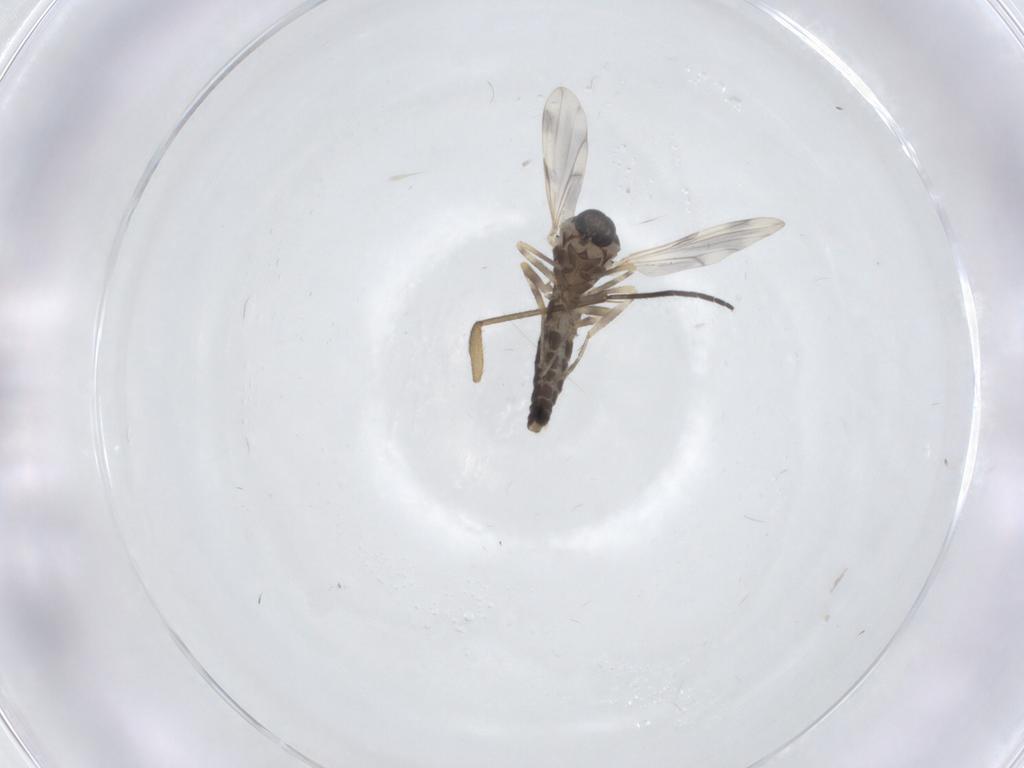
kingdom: Animalia
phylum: Arthropoda
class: Insecta
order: Diptera
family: Ceratopogonidae
